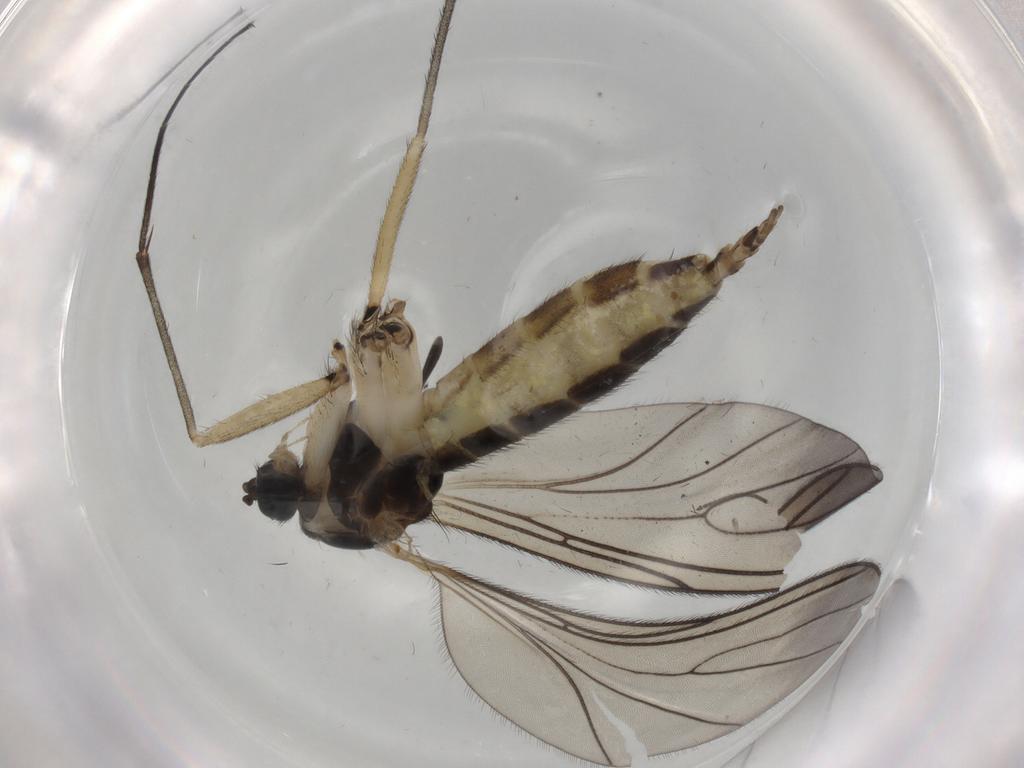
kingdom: Animalia
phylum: Arthropoda
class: Insecta
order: Diptera
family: Sciaridae
